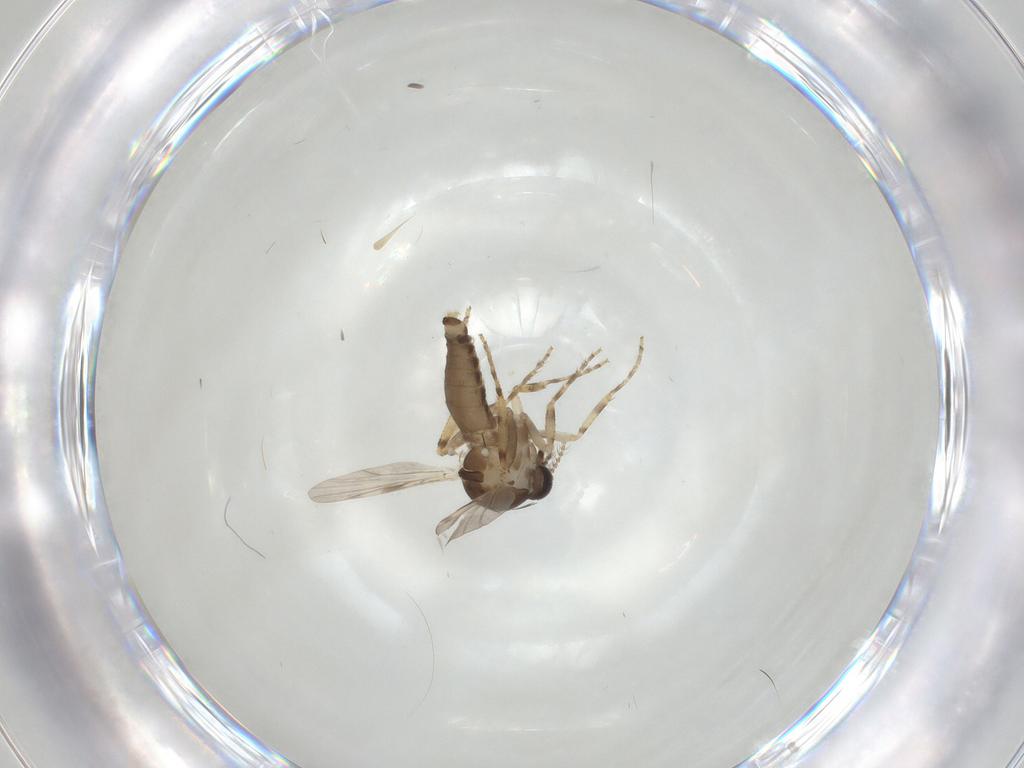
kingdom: Animalia
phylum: Arthropoda
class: Insecta
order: Diptera
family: Ceratopogonidae
